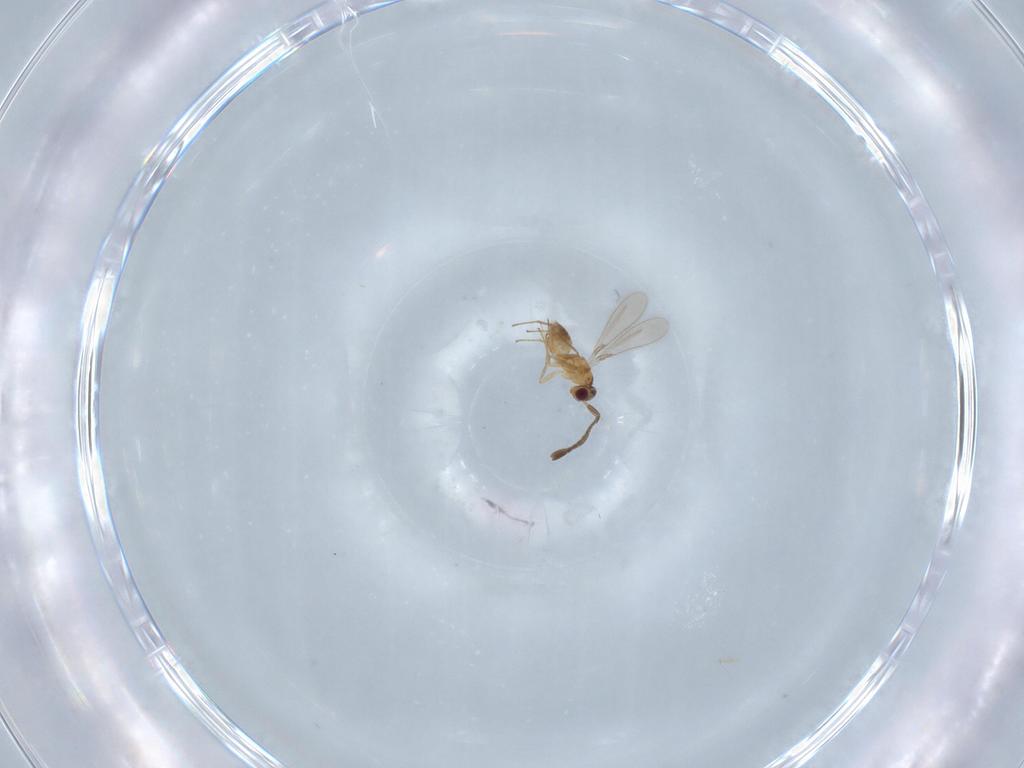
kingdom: Animalia
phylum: Arthropoda
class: Insecta
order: Hymenoptera
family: Mymaridae
